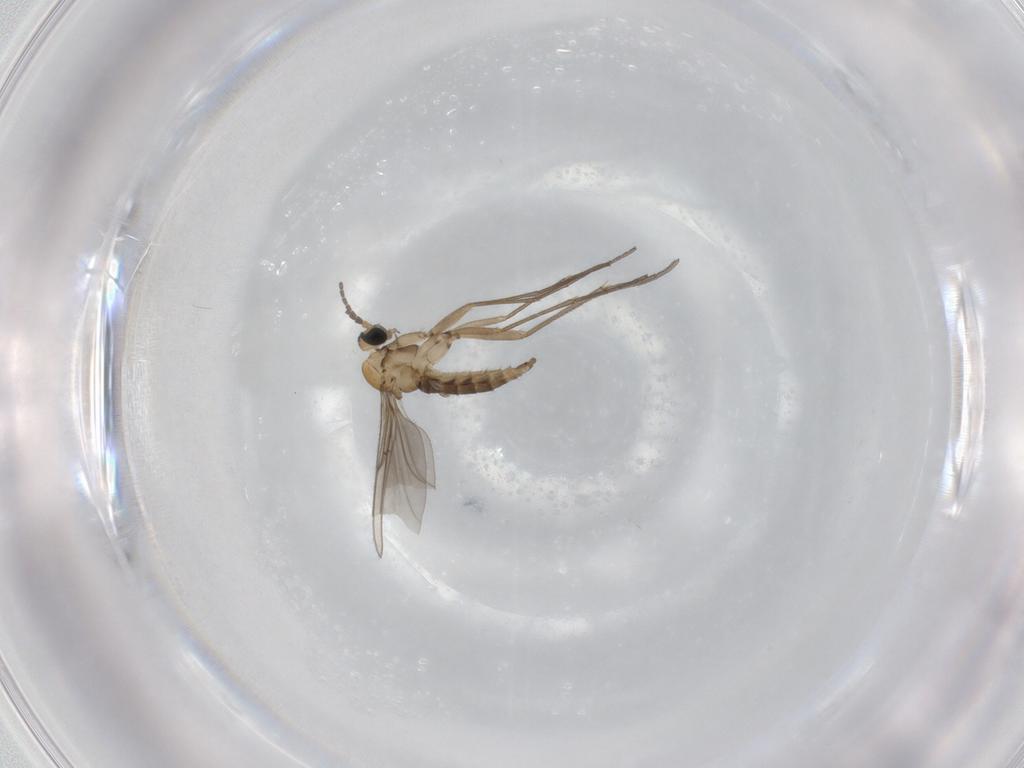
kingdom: Animalia
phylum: Arthropoda
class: Insecta
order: Diptera
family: Sciaridae
